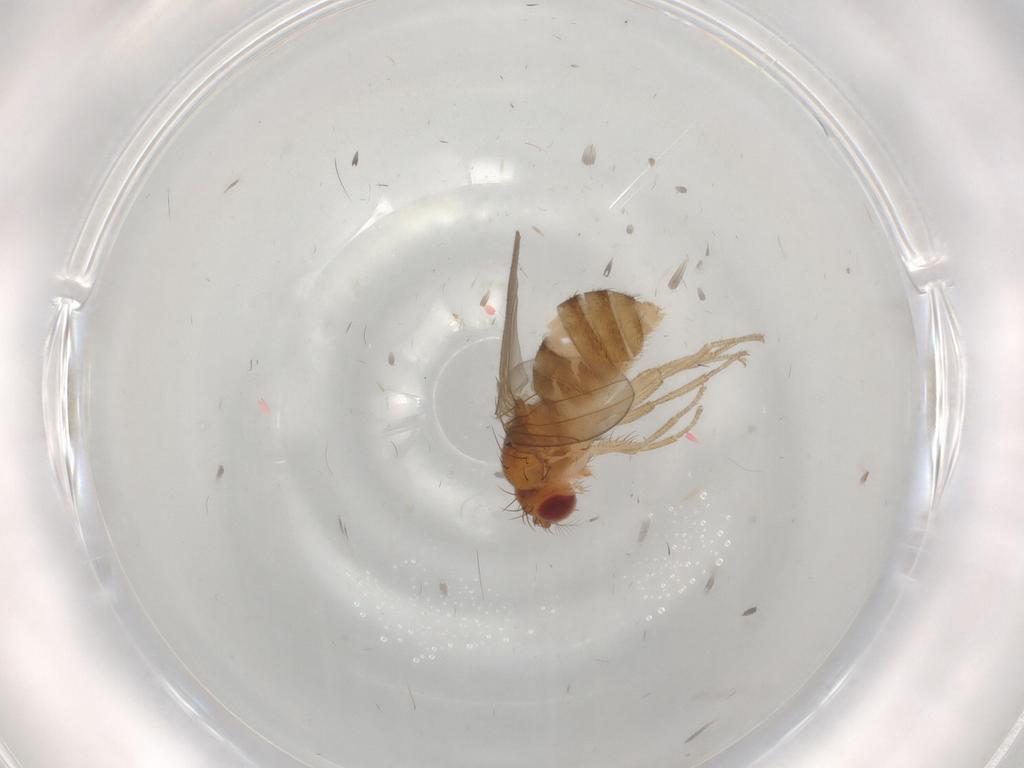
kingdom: Animalia
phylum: Arthropoda
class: Insecta
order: Diptera
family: Drosophilidae
